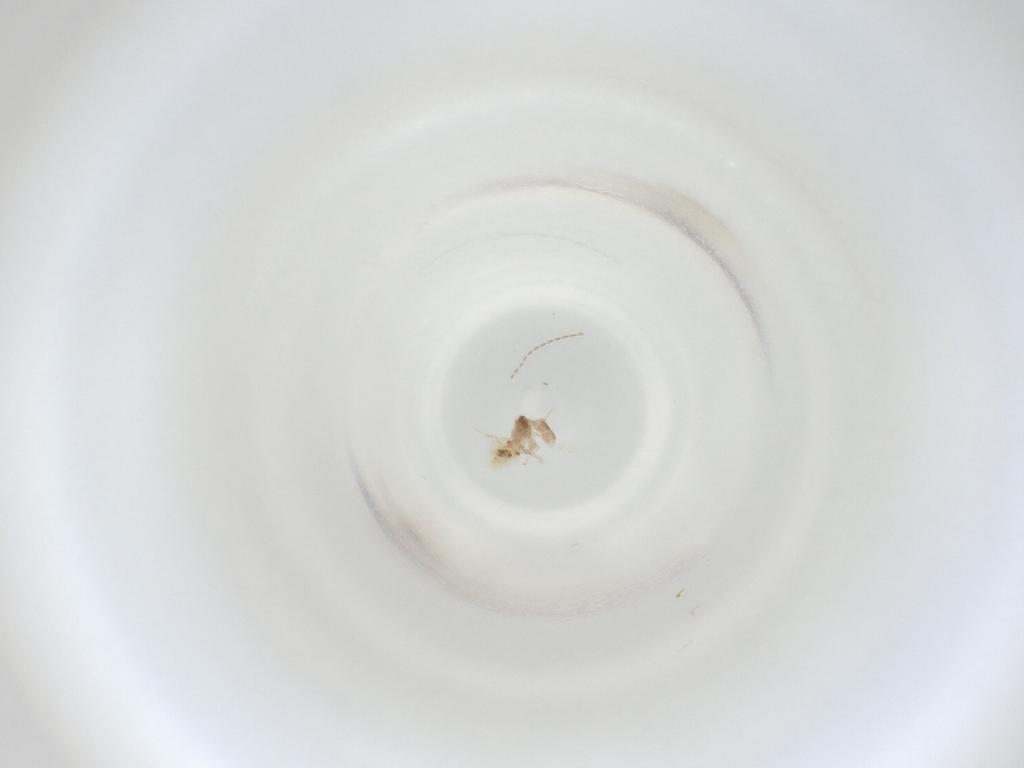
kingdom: Animalia
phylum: Arthropoda
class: Insecta
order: Diptera
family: Cecidomyiidae
